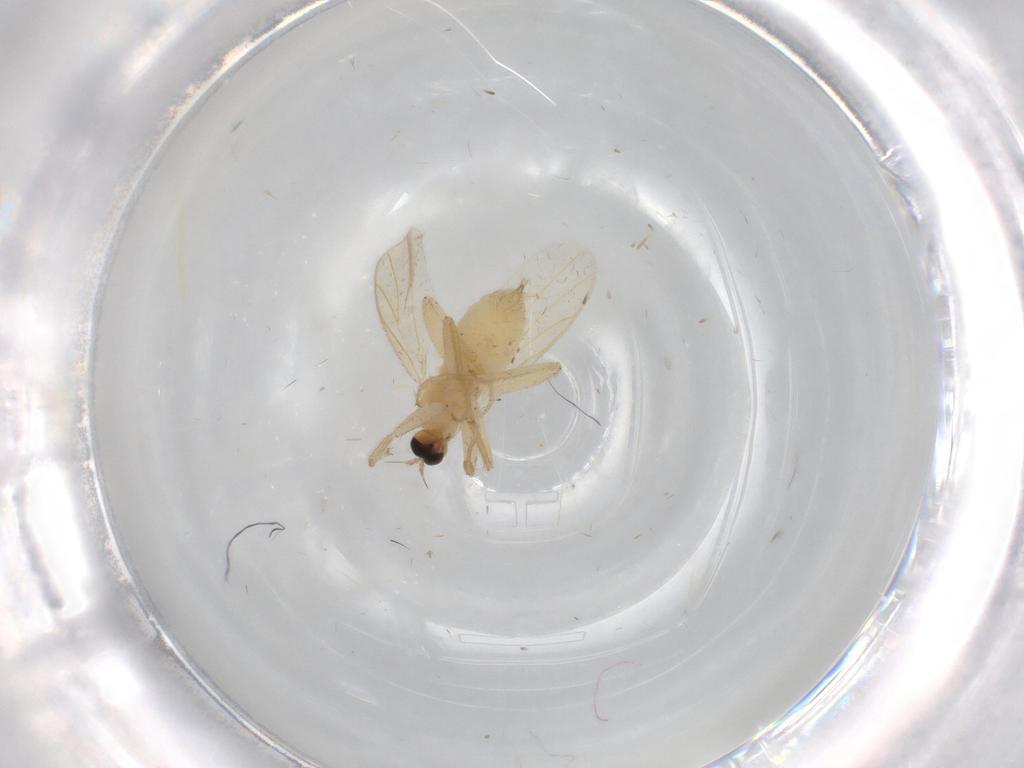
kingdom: Animalia
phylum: Arthropoda
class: Insecta
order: Diptera
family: Hybotidae
